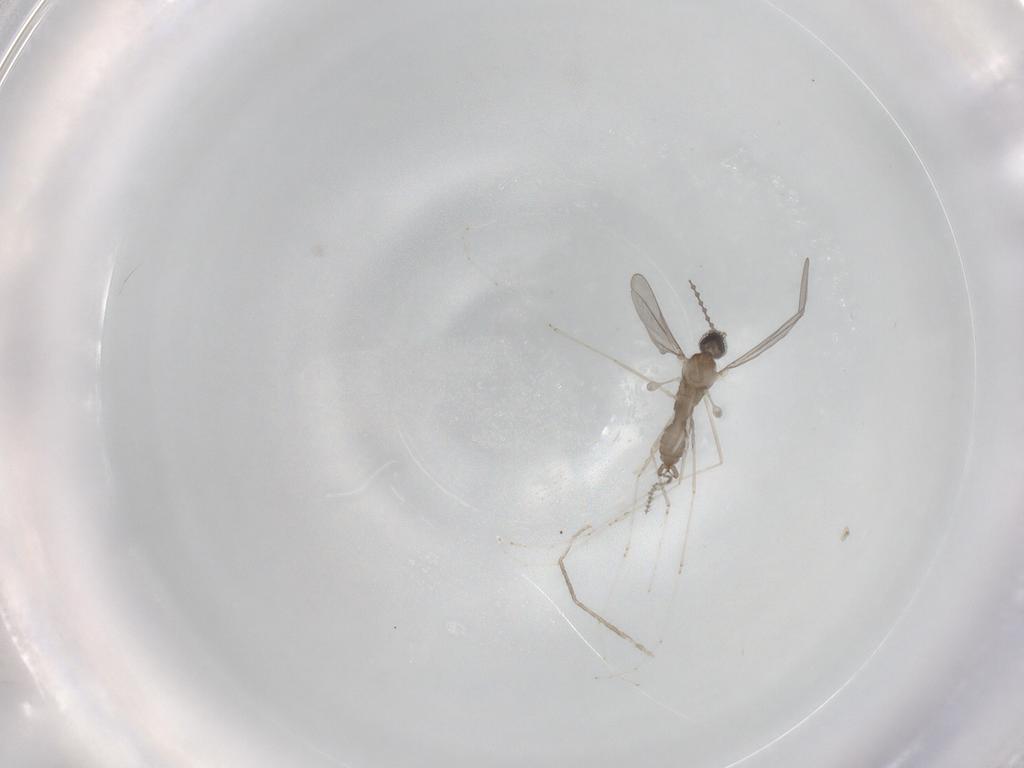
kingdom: Animalia
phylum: Arthropoda
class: Insecta
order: Diptera
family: Cecidomyiidae
